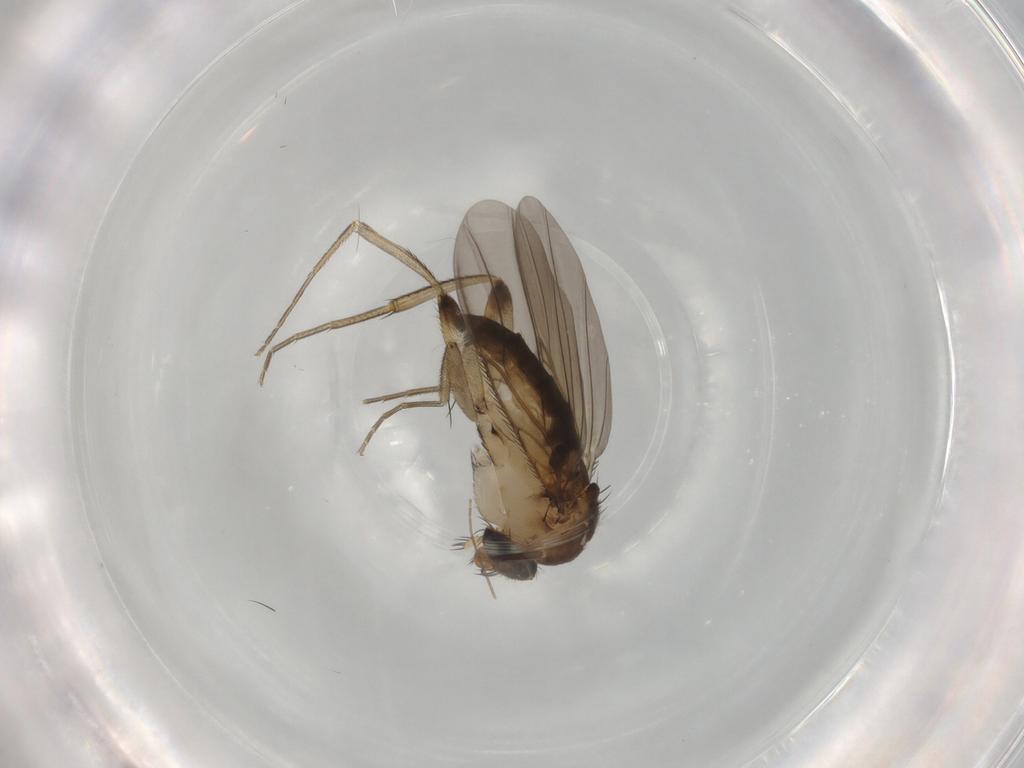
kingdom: Animalia
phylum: Arthropoda
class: Insecta
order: Diptera
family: Phoridae
